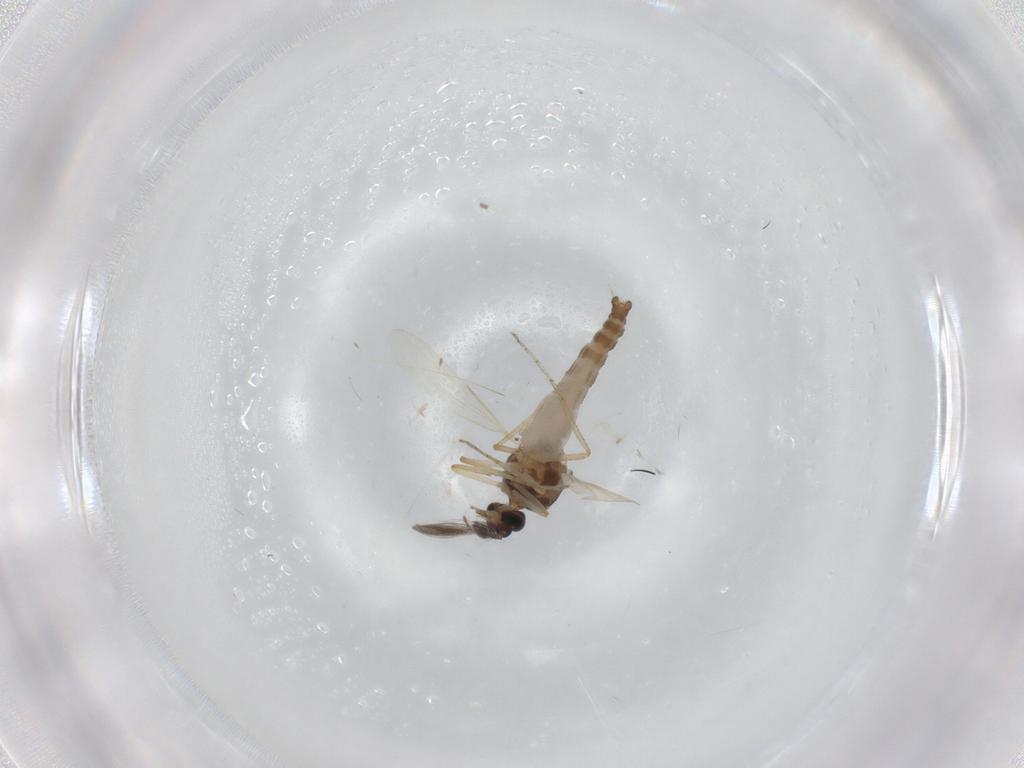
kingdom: Animalia
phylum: Arthropoda
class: Insecta
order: Diptera
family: Ceratopogonidae
